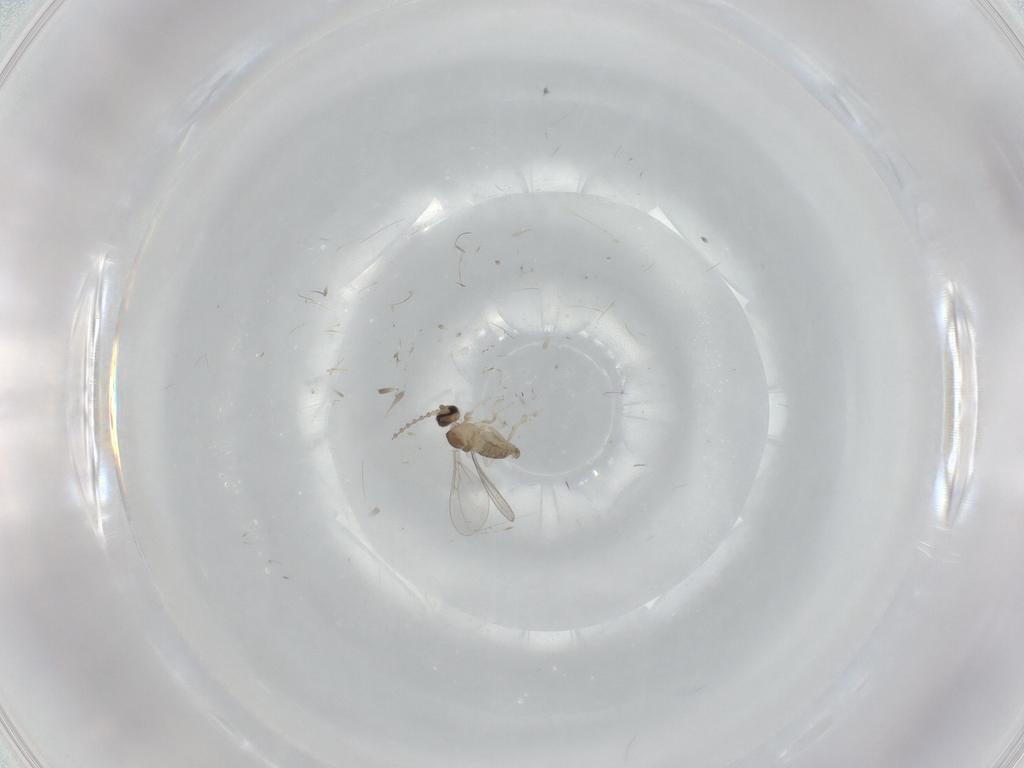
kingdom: Animalia
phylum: Arthropoda
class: Insecta
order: Diptera
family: Cecidomyiidae
